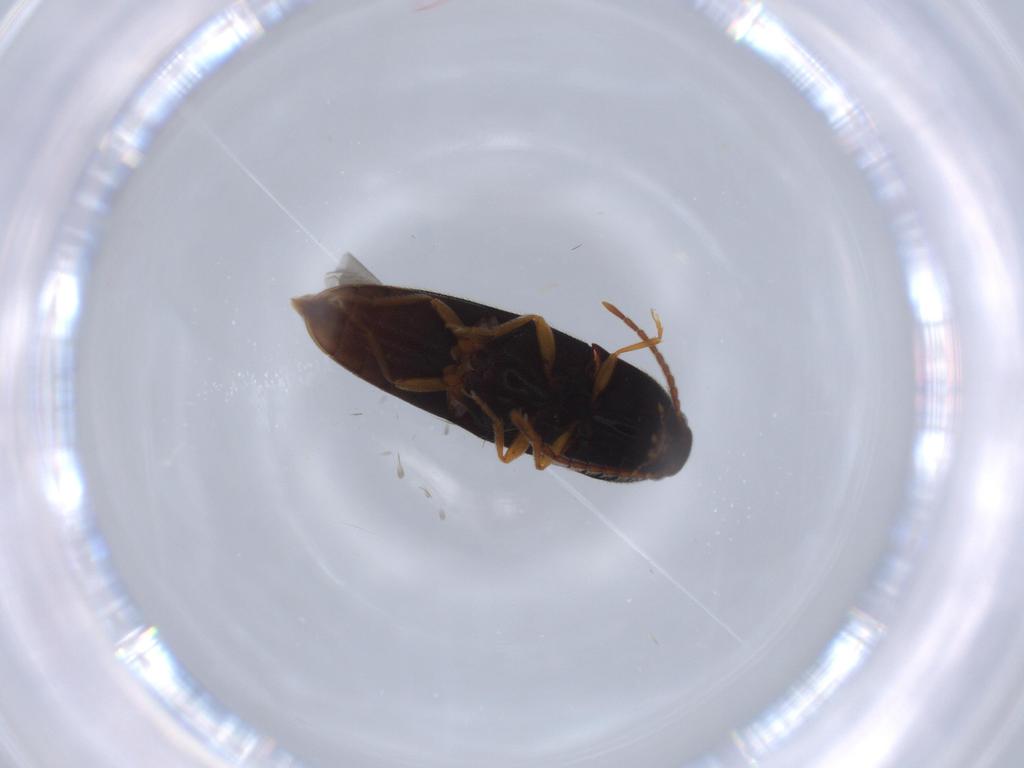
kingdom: Animalia
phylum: Arthropoda
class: Insecta
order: Coleoptera
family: Elateridae
